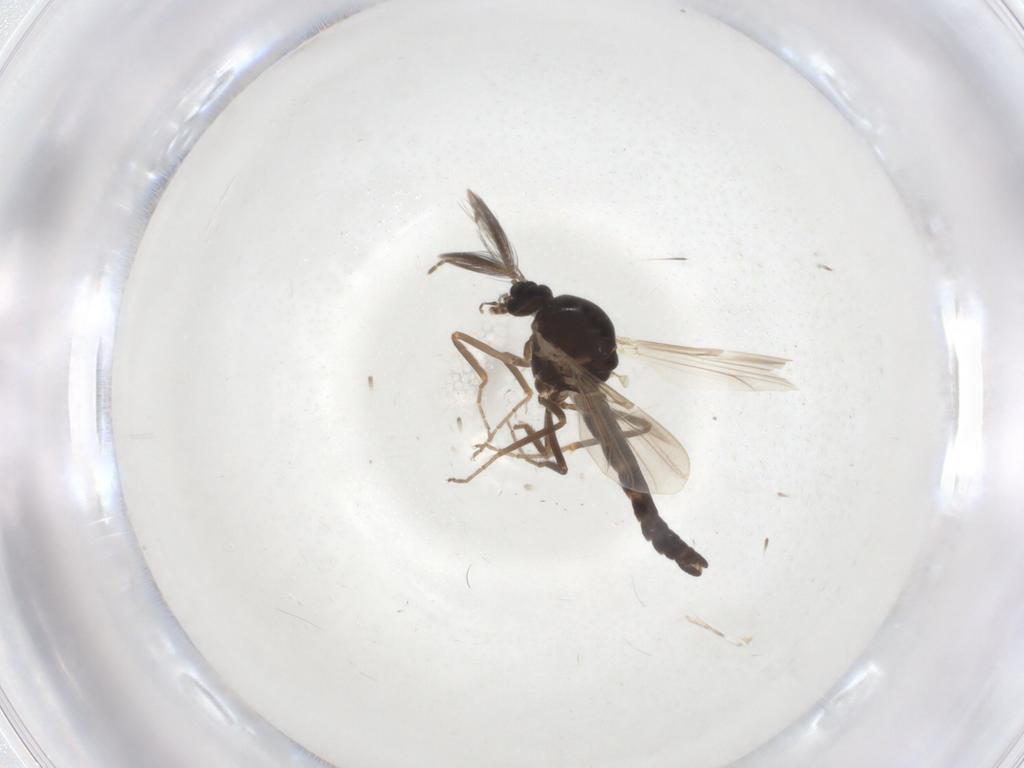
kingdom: Animalia
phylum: Arthropoda
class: Insecta
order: Diptera
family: Ceratopogonidae
